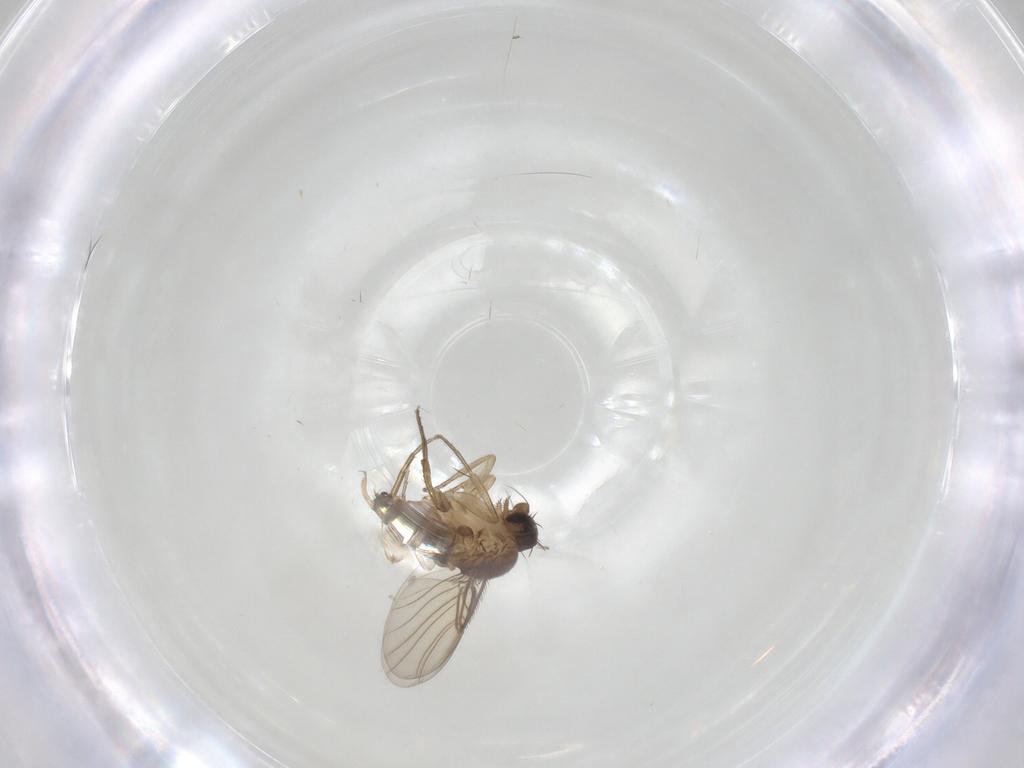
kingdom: Animalia
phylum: Arthropoda
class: Insecta
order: Diptera
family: Phoridae
